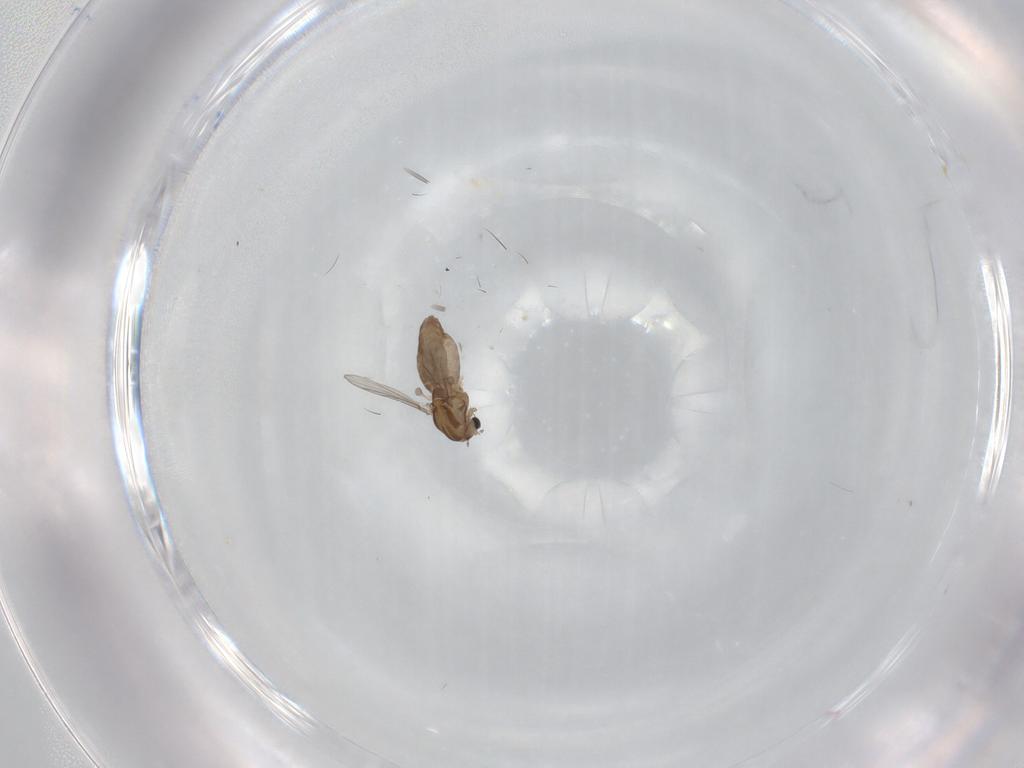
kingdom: Animalia
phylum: Arthropoda
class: Insecta
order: Diptera
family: Chironomidae
